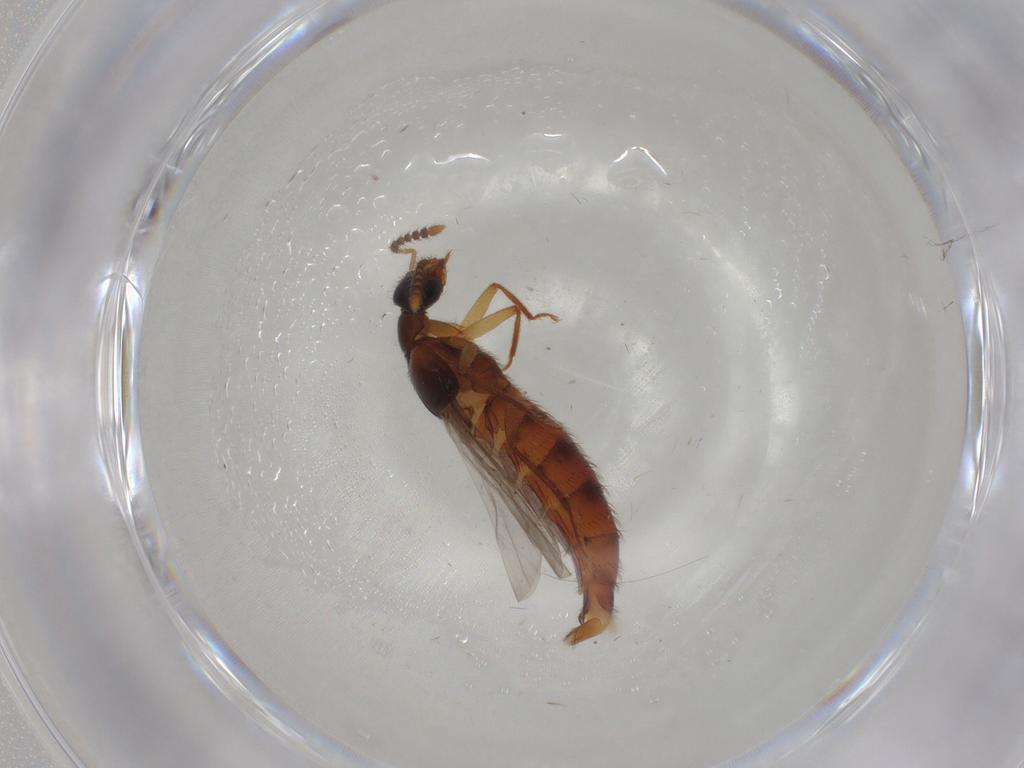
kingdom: Animalia
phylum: Arthropoda
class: Insecta
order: Coleoptera
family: Staphylinidae
